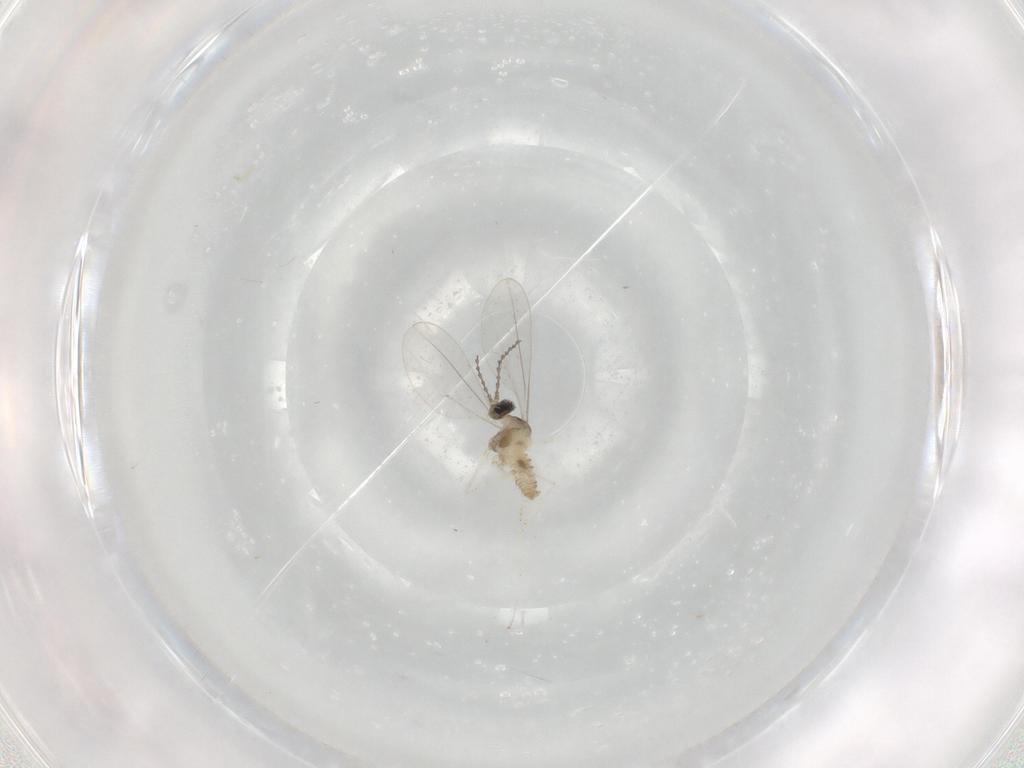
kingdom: Animalia
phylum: Arthropoda
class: Insecta
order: Diptera
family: Cecidomyiidae
